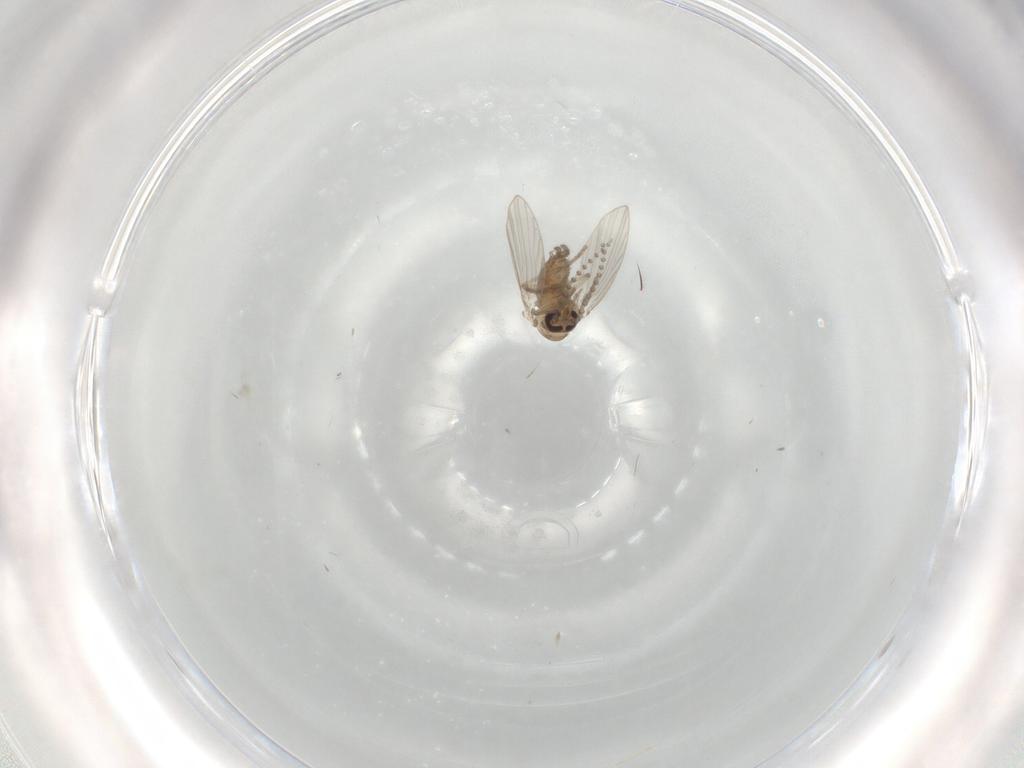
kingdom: Animalia
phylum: Arthropoda
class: Insecta
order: Diptera
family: Psychodidae
